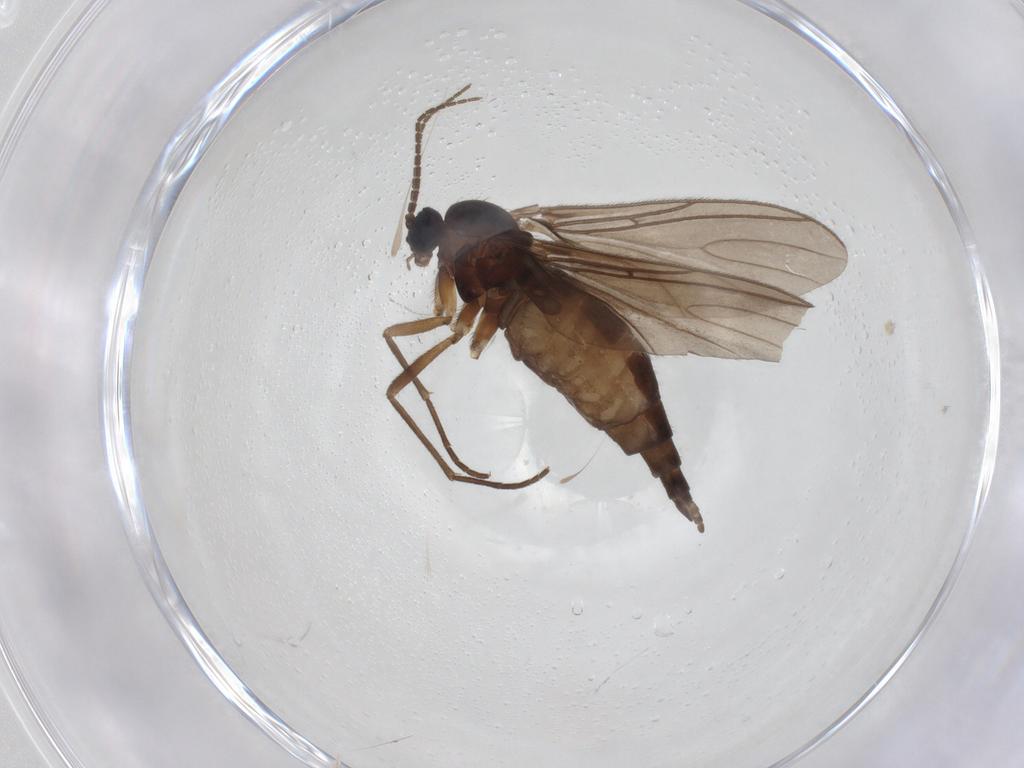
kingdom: Animalia
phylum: Arthropoda
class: Insecta
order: Diptera
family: Sciaridae
